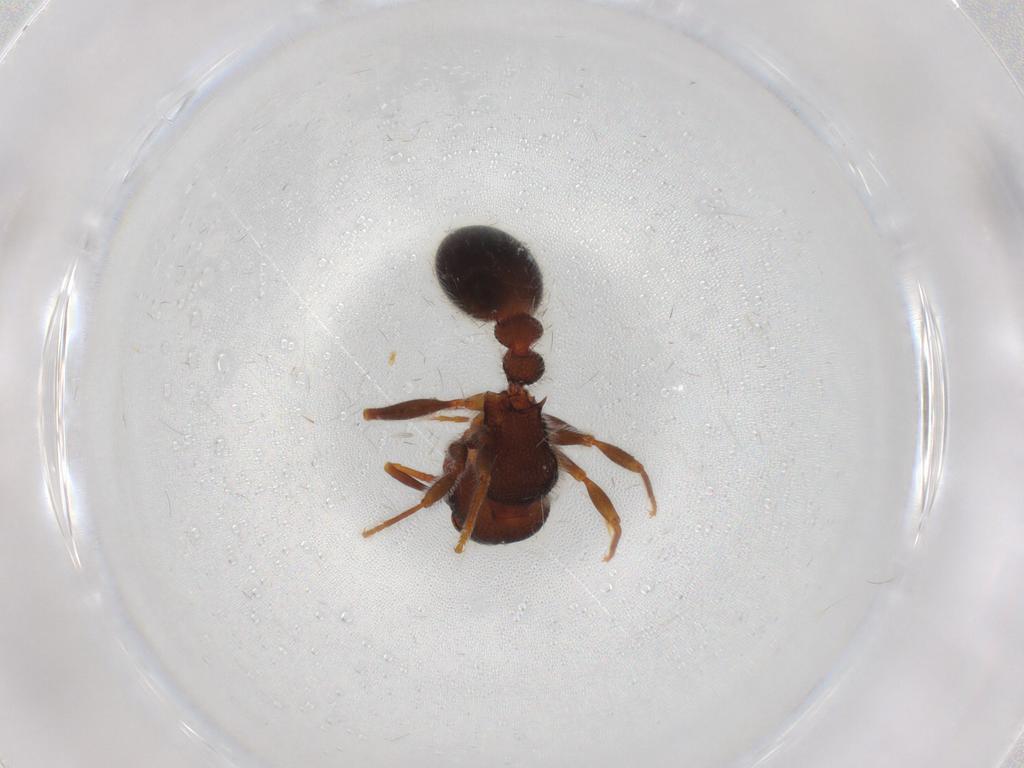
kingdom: Animalia
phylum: Arthropoda
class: Insecta
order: Hymenoptera
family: Formicidae
